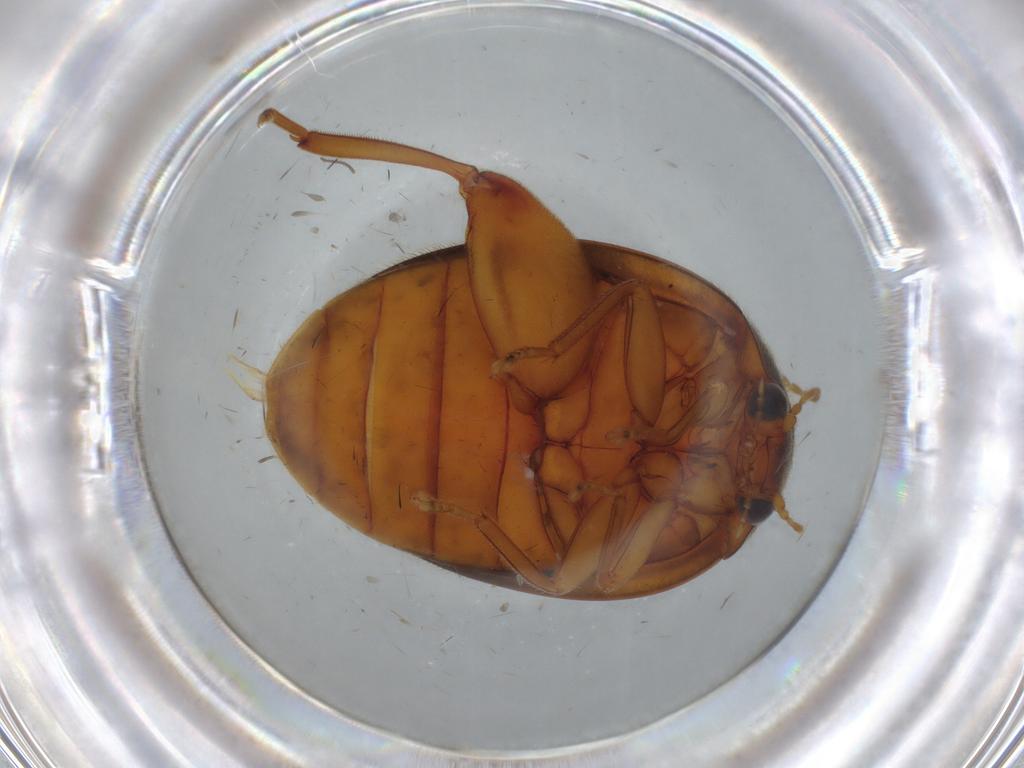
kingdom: Animalia
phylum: Arthropoda
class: Insecta
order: Coleoptera
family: Scirtidae
